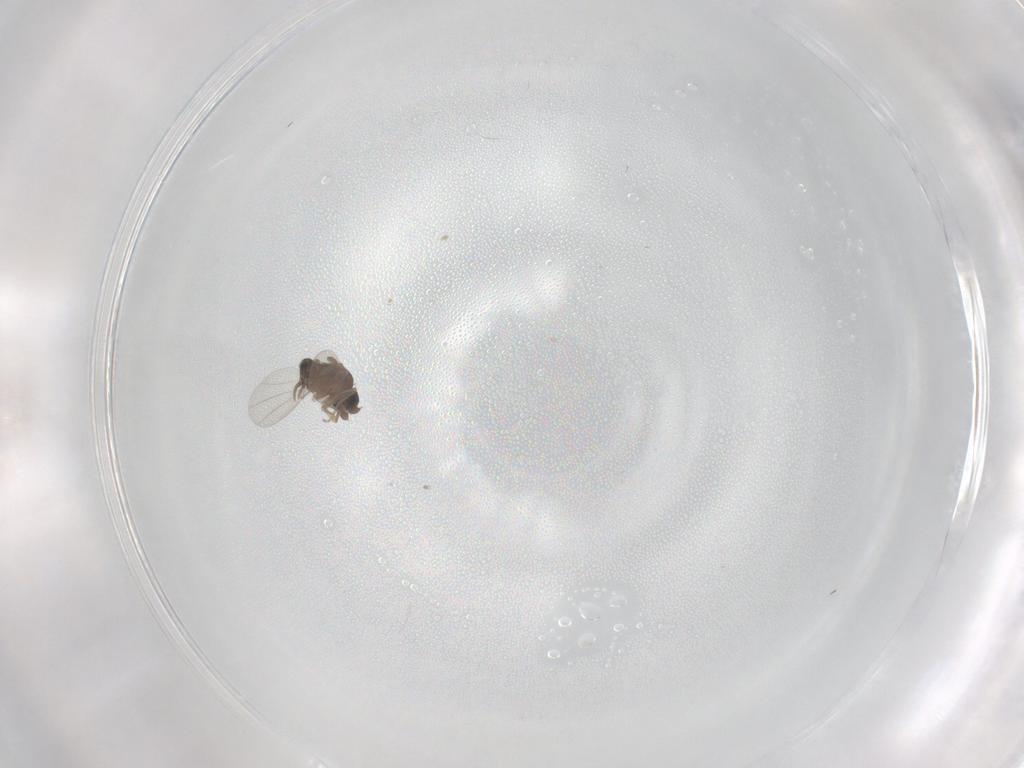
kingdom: Animalia
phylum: Arthropoda
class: Insecta
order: Diptera
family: Phoridae
